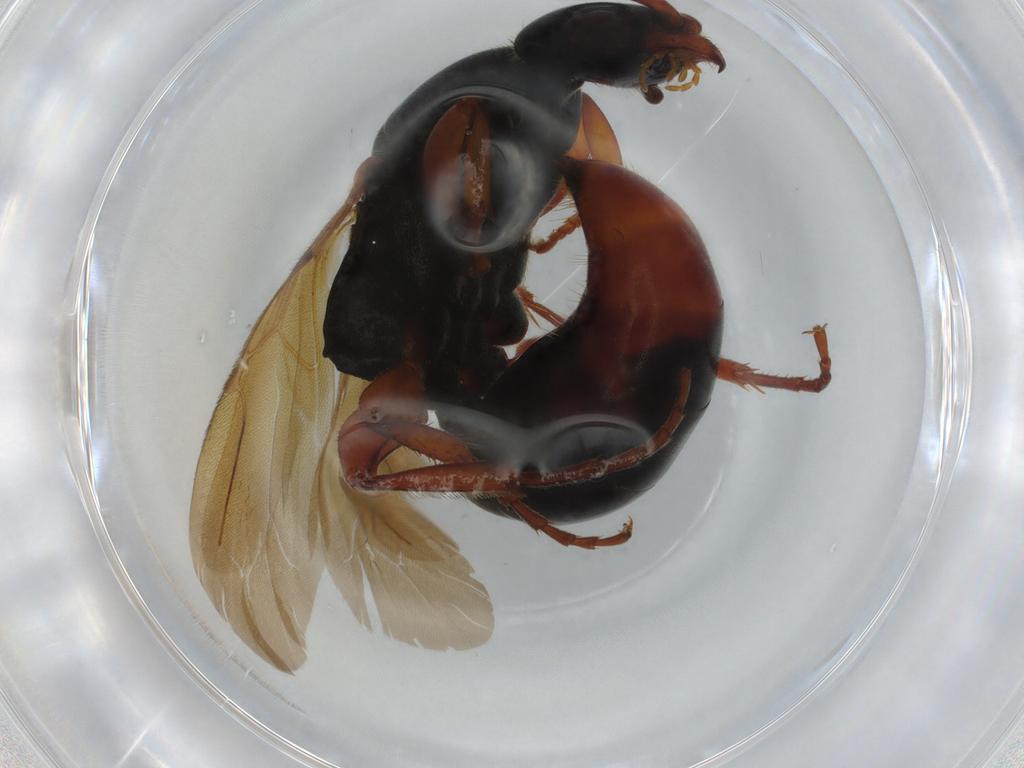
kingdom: Animalia
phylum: Arthropoda
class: Insecta
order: Hymenoptera
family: Bethylidae
